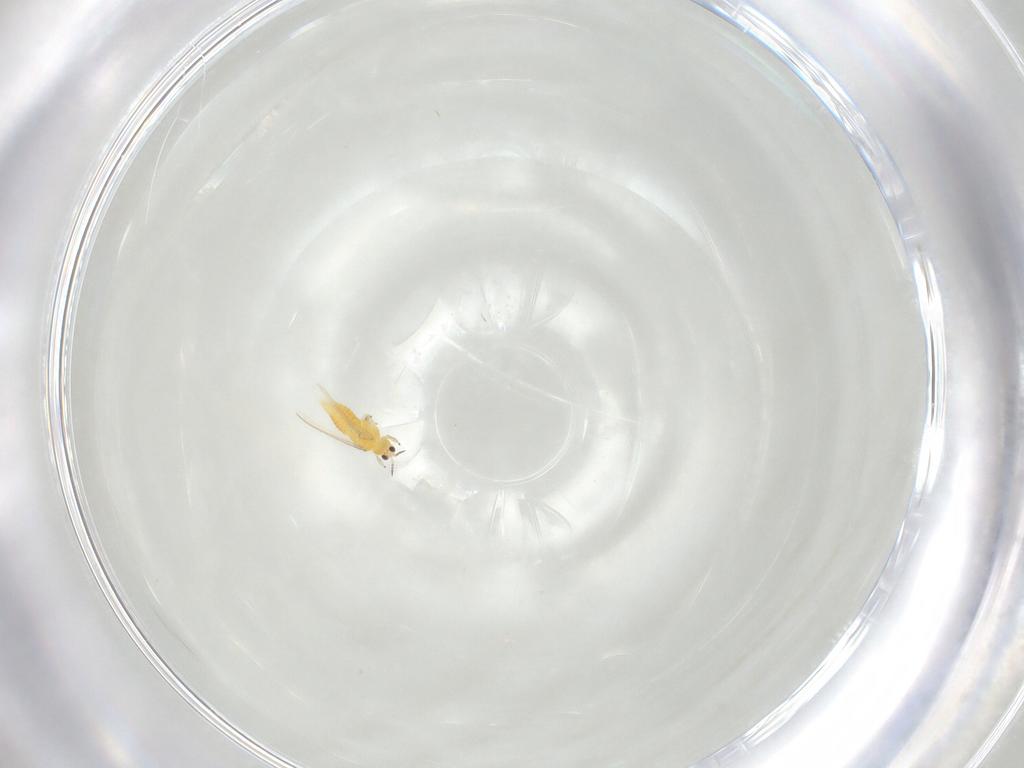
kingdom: Animalia
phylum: Arthropoda
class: Insecta
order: Thysanoptera
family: Thripidae
